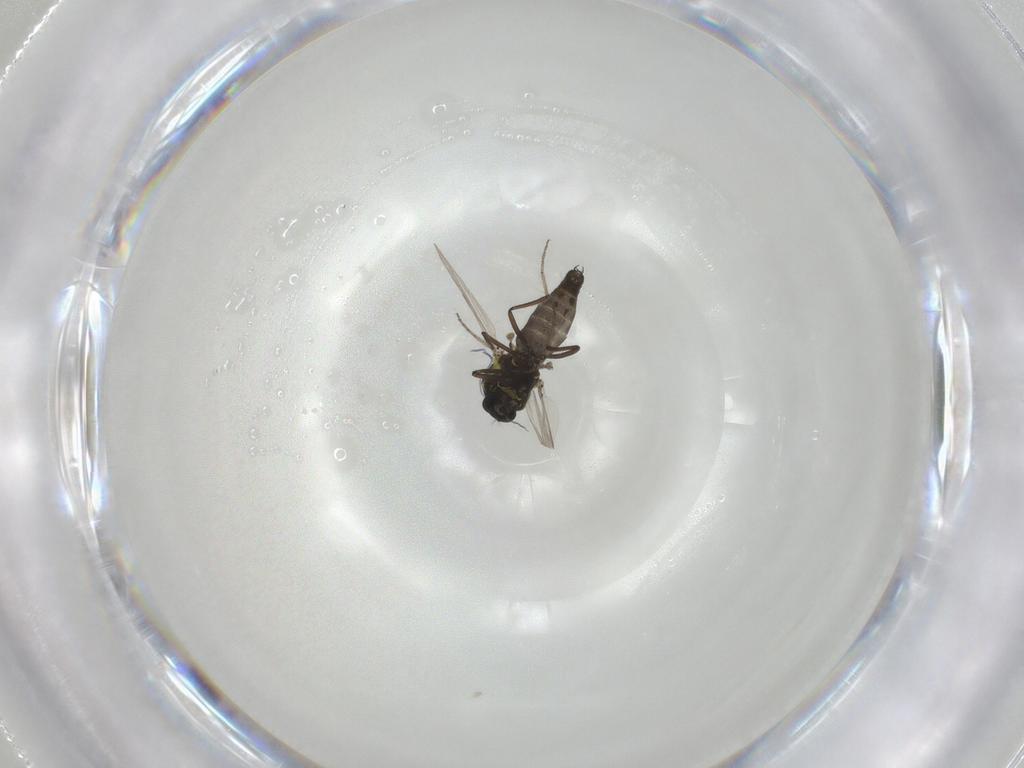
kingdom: Animalia
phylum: Arthropoda
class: Insecta
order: Diptera
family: Ceratopogonidae
